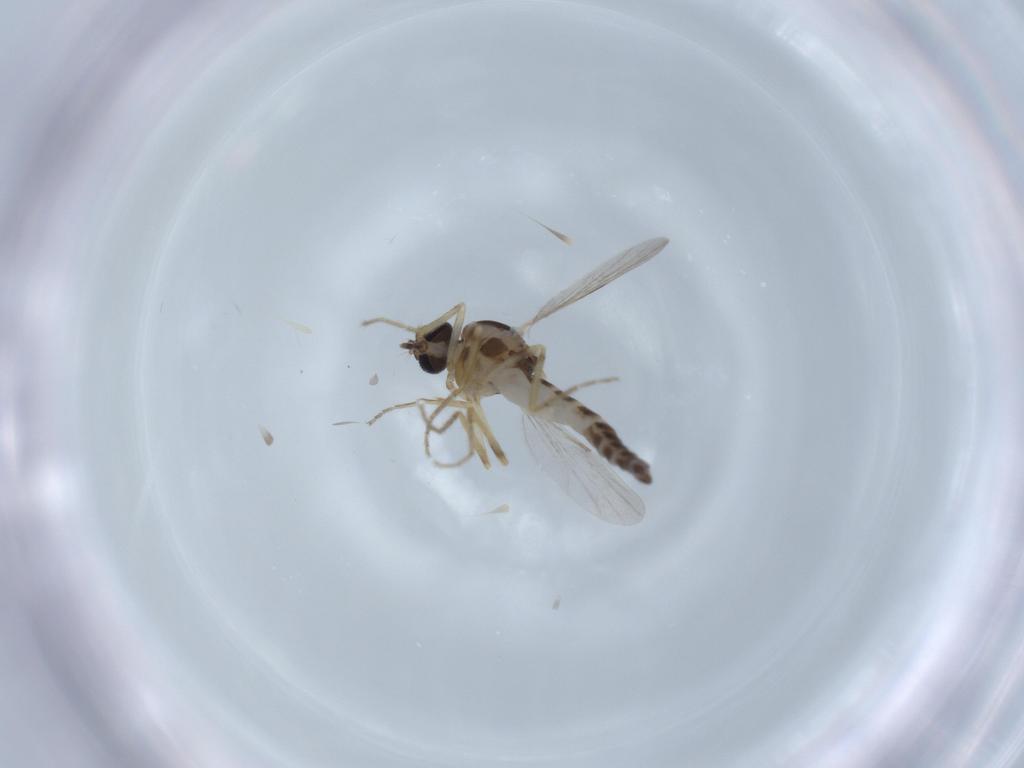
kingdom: Animalia
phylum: Arthropoda
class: Insecta
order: Diptera
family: Ceratopogonidae
